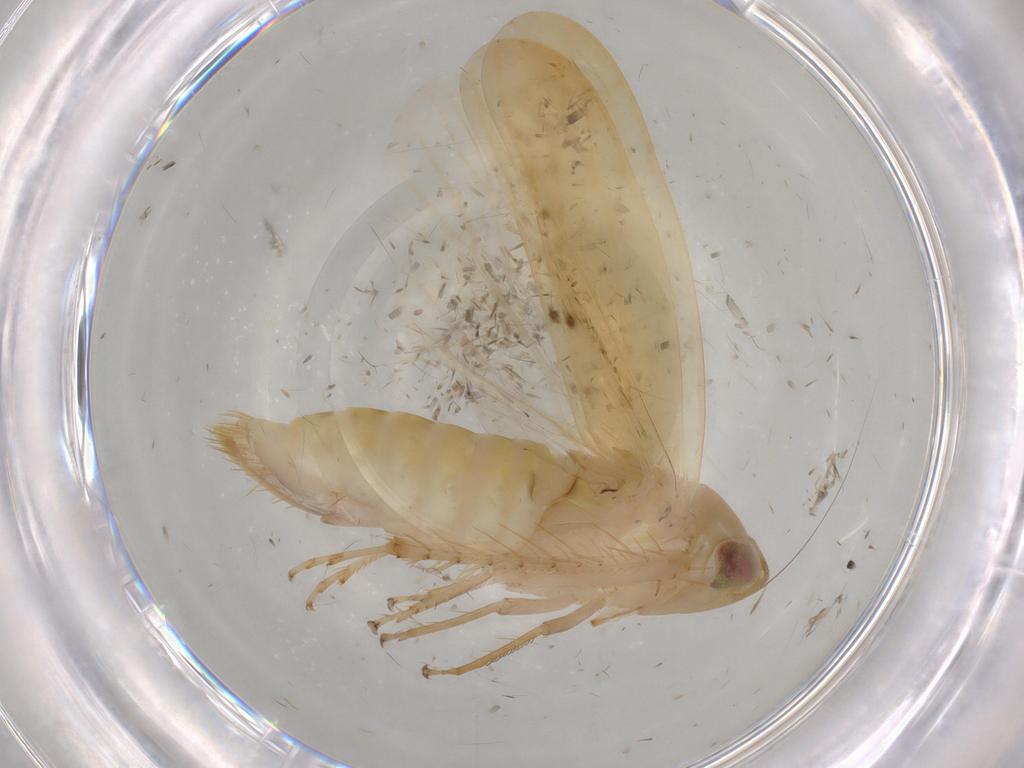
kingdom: Animalia
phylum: Arthropoda
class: Insecta
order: Hemiptera
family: Cicadellidae
